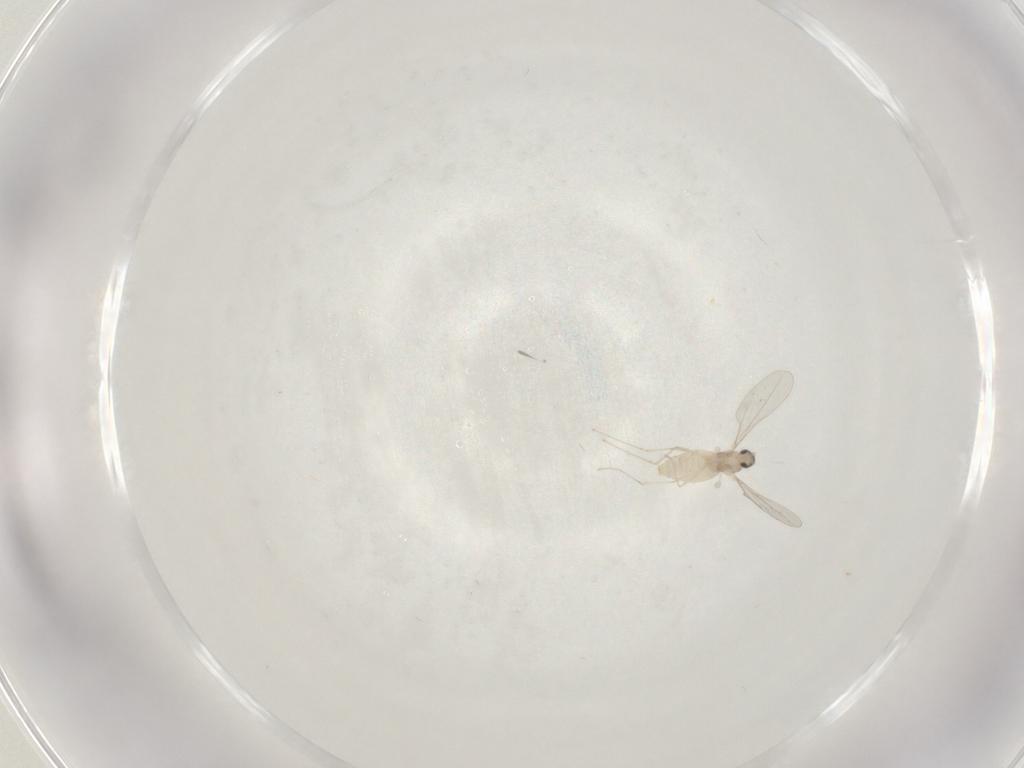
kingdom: Animalia
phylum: Arthropoda
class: Insecta
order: Diptera
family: Cecidomyiidae
